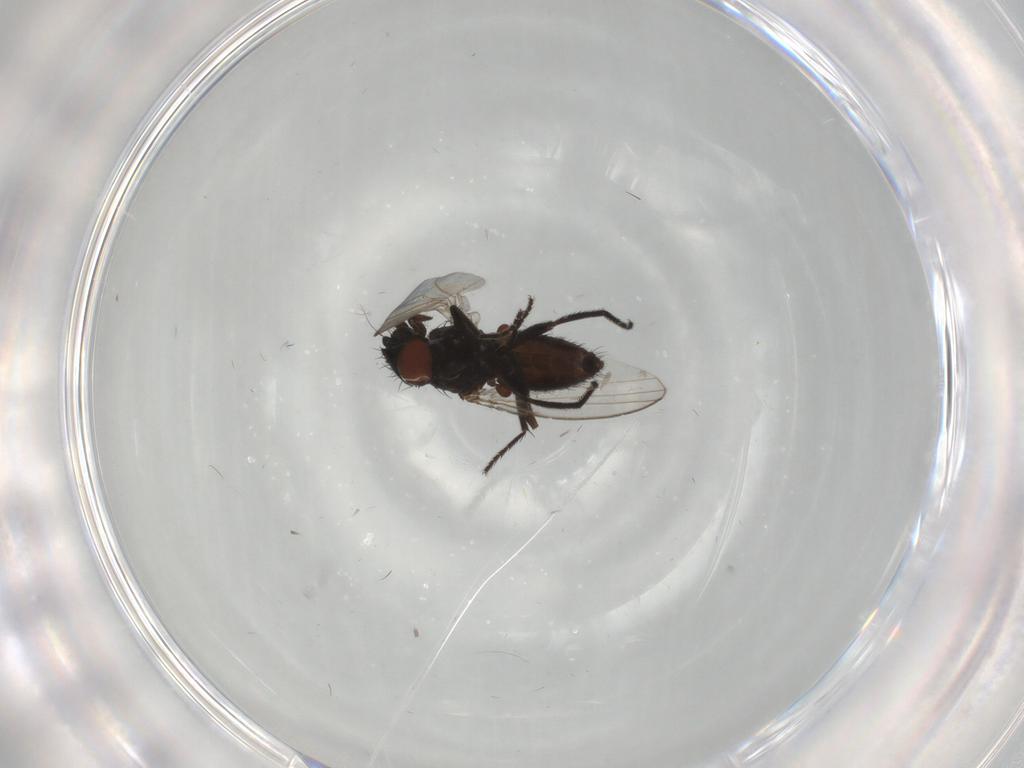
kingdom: Animalia
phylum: Arthropoda
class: Insecta
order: Diptera
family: Milichiidae
